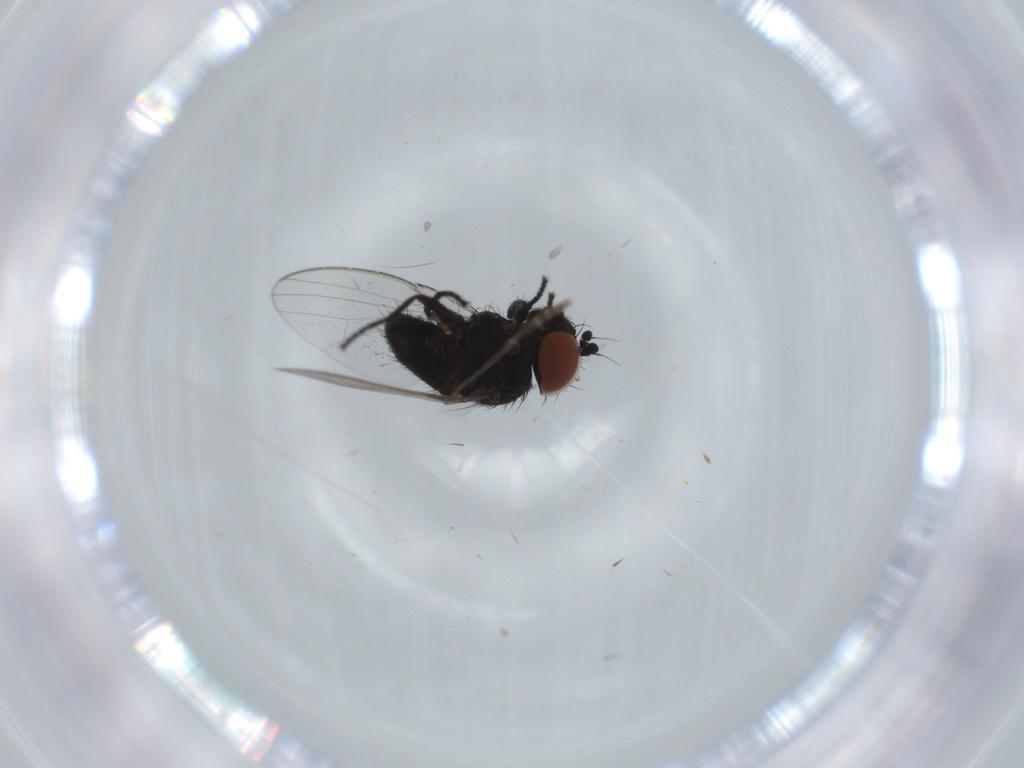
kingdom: Animalia
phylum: Arthropoda
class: Insecta
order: Diptera
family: Psychodidae
